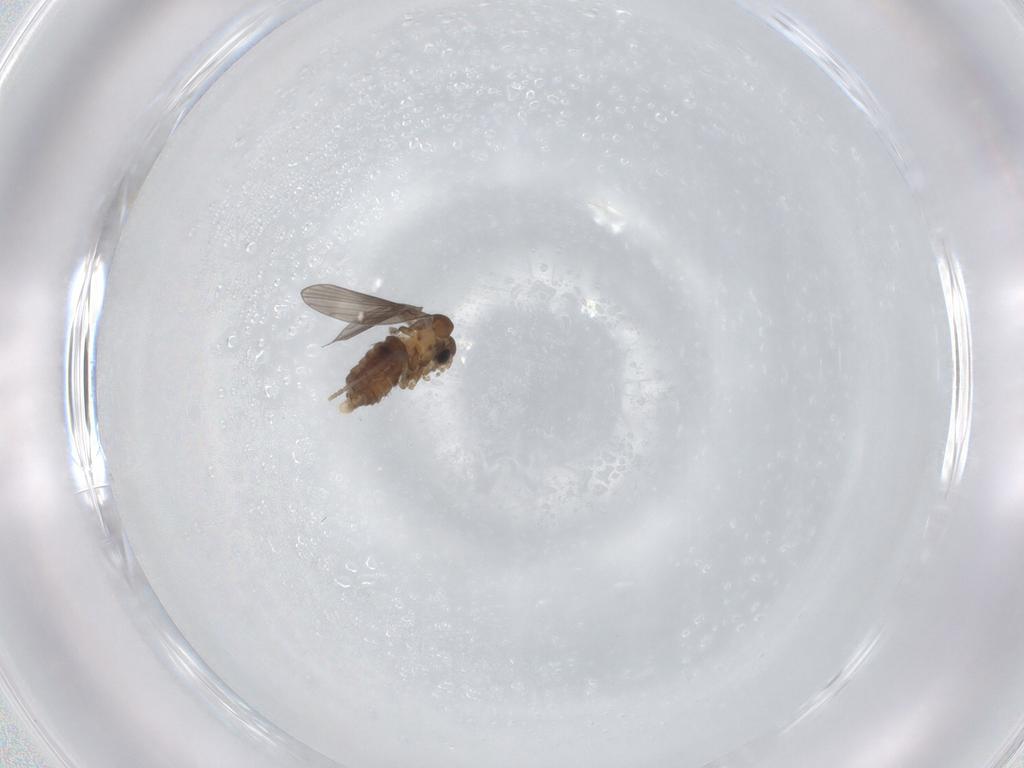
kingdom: Animalia
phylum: Arthropoda
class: Insecta
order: Diptera
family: Psychodidae
